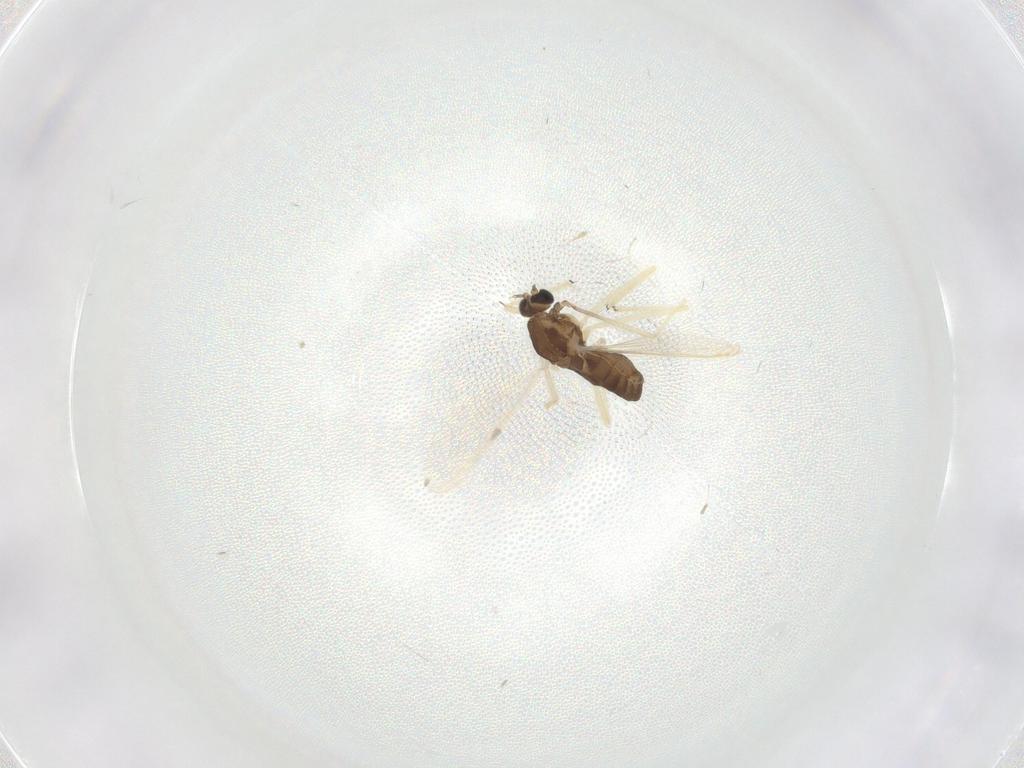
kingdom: Animalia
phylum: Arthropoda
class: Insecta
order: Diptera
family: Chironomidae
